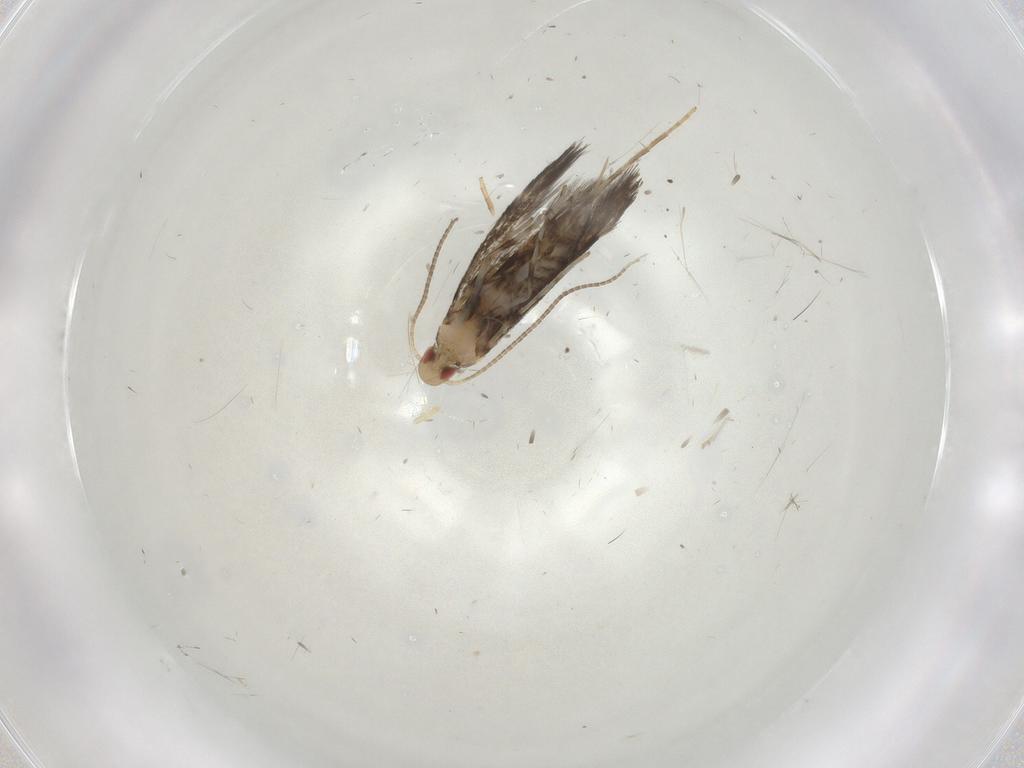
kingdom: Animalia
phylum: Arthropoda
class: Insecta
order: Lepidoptera
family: Gracillariidae
